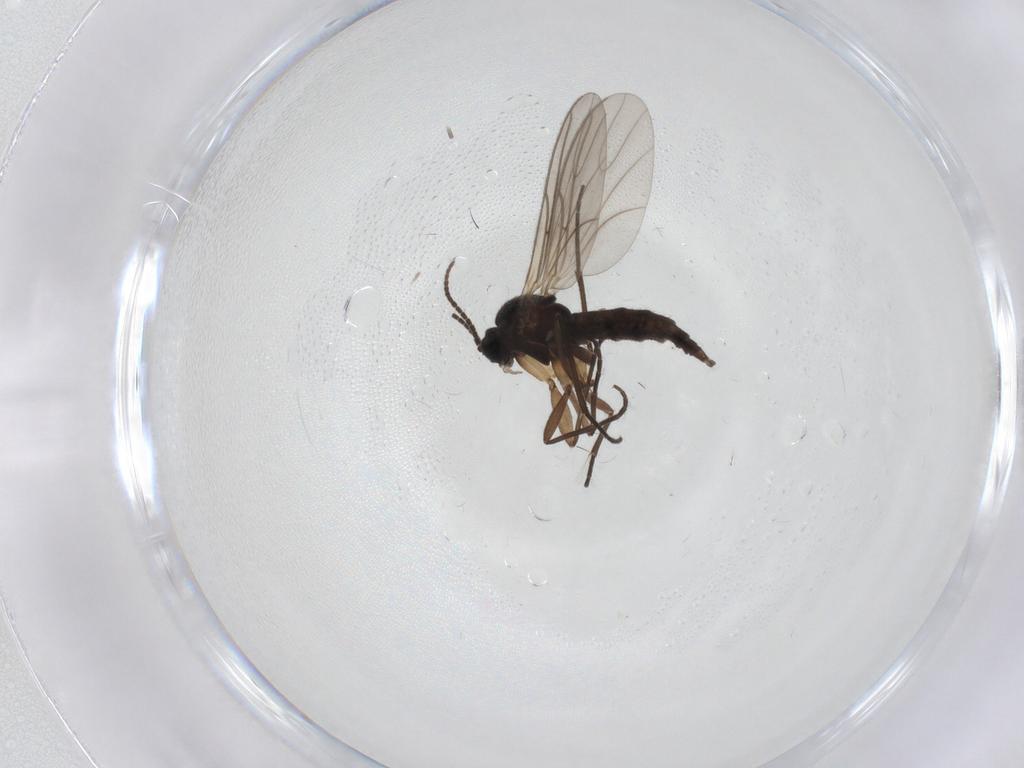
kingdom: Animalia
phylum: Arthropoda
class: Insecta
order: Diptera
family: Sciaridae
